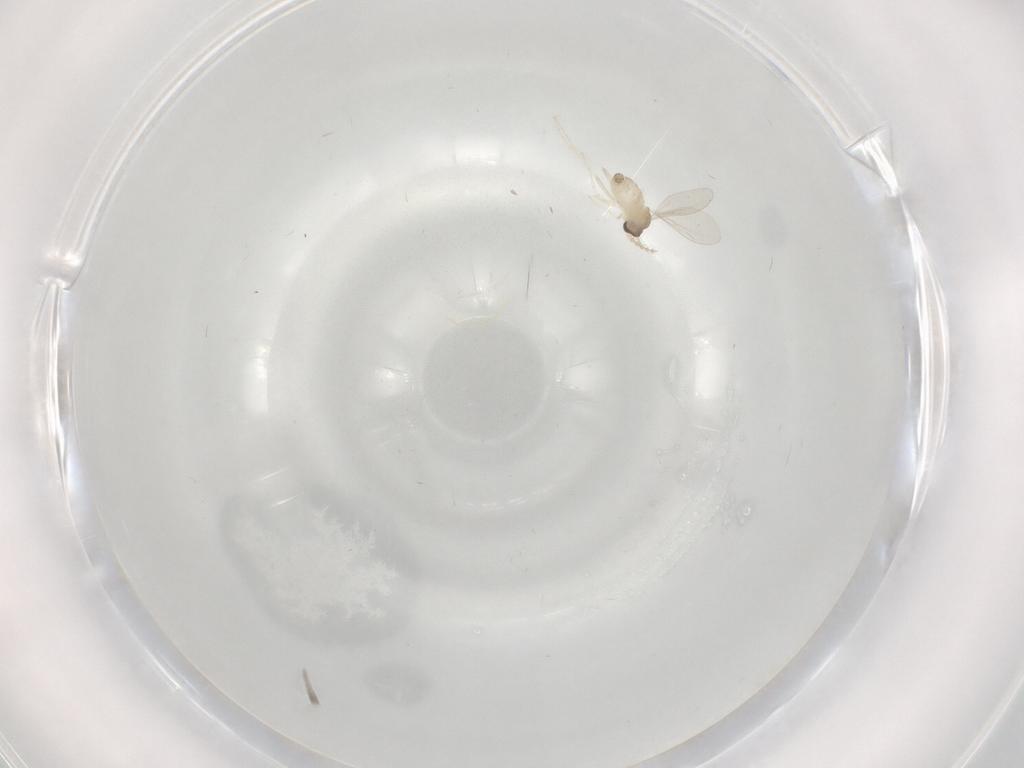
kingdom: Animalia
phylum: Arthropoda
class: Insecta
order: Diptera
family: Cecidomyiidae
